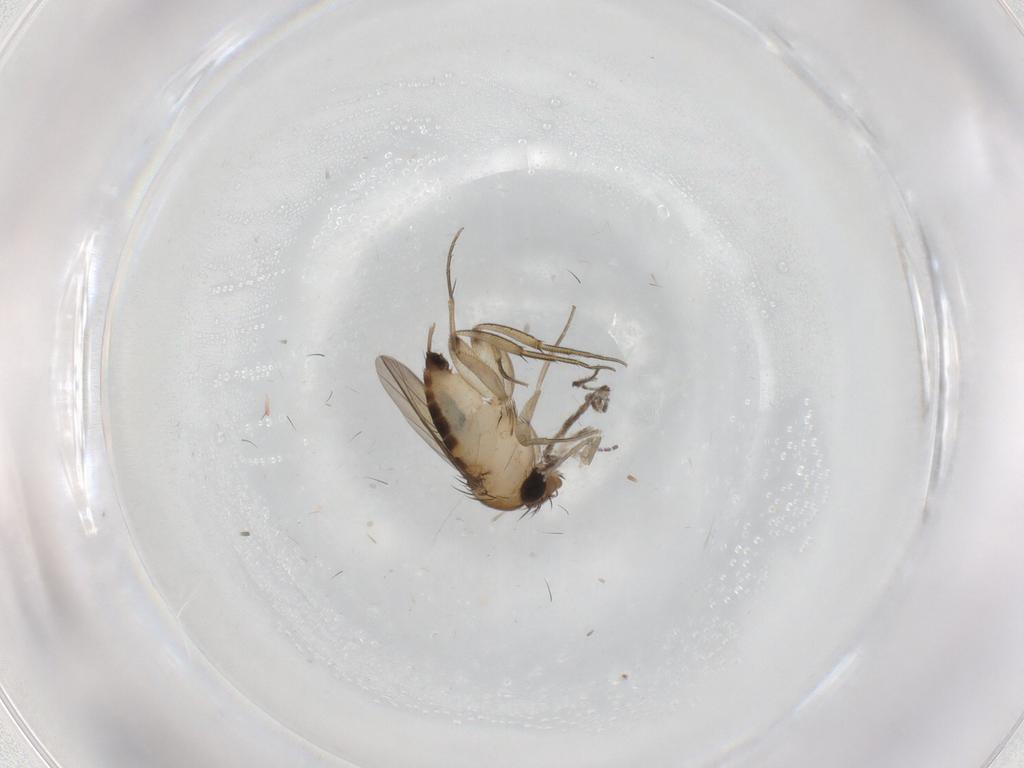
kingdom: Animalia
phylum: Arthropoda
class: Insecta
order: Diptera
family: Phoridae
